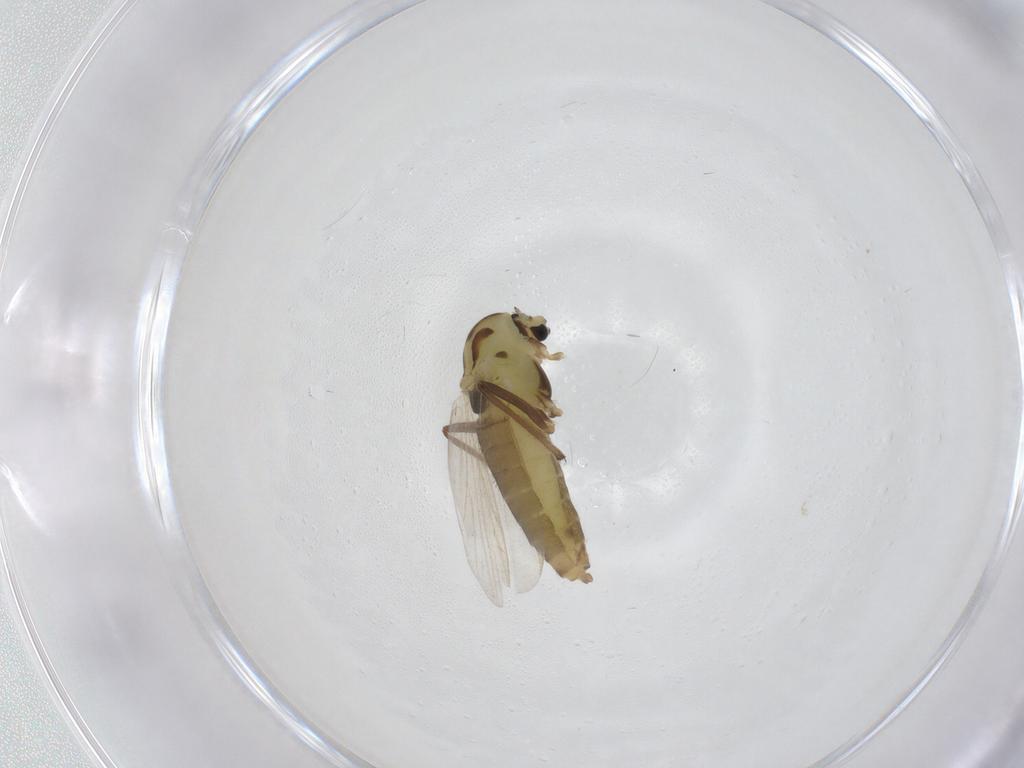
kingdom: Animalia
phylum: Arthropoda
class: Insecta
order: Diptera
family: Chironomidae
